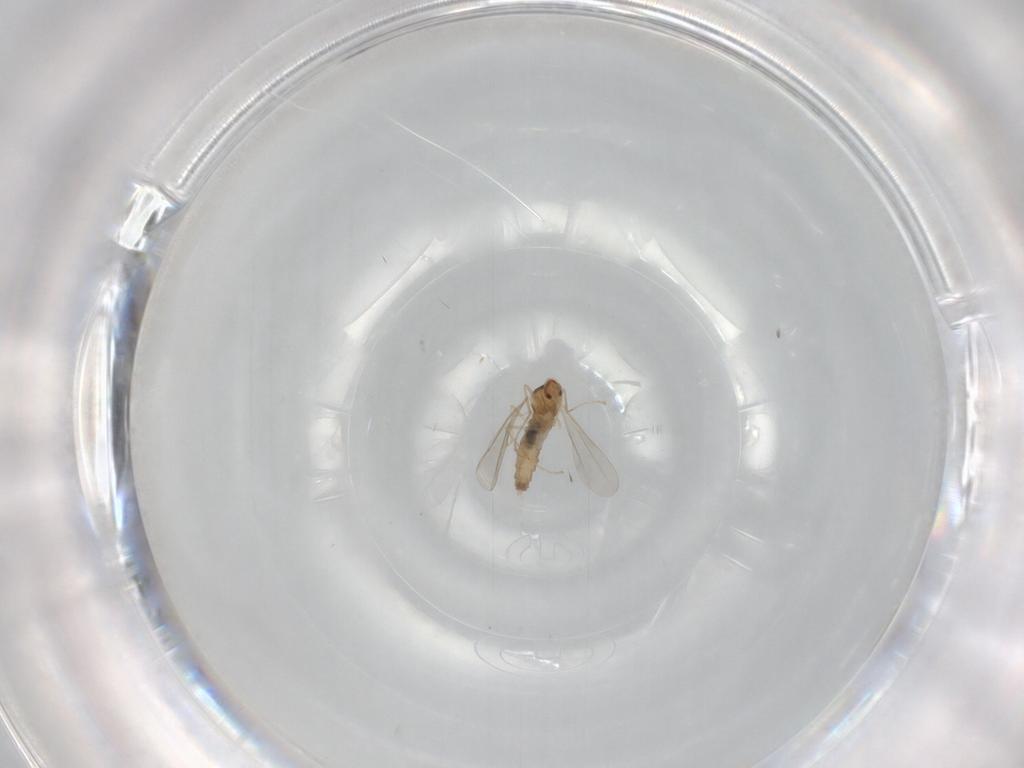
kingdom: Animalia
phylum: Arthropoda
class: Insecta
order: Diptera
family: Cecidomyiidae
